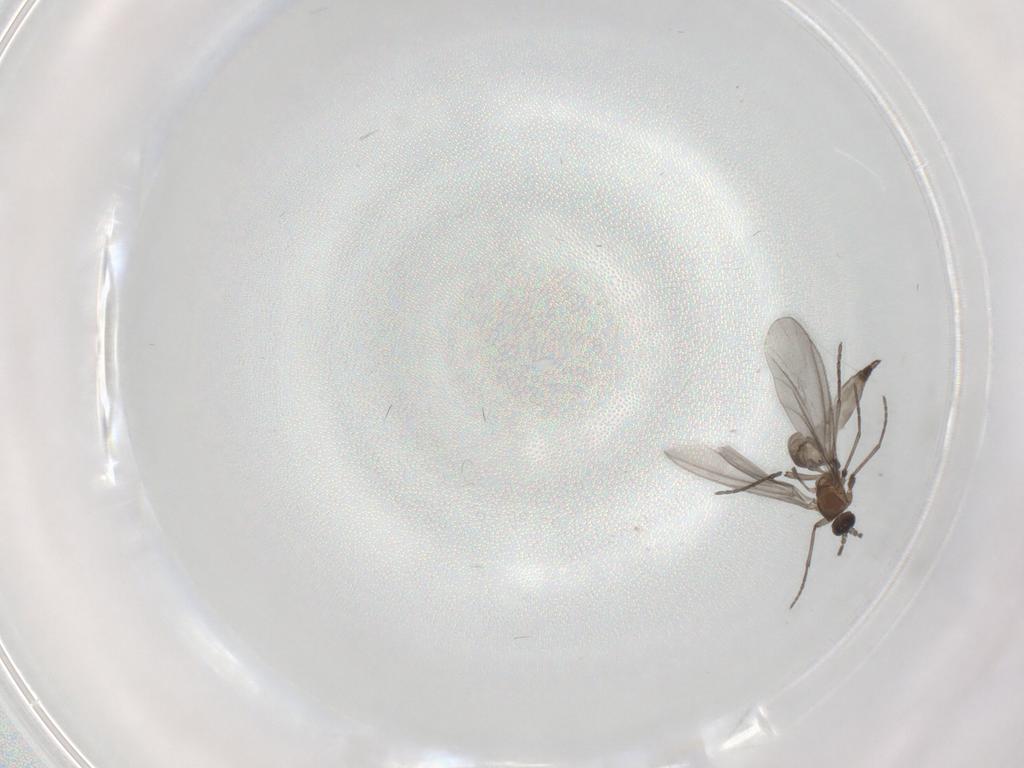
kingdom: Animalia
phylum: Arthropoda
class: Insecta
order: Diptera
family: Sciaridae
